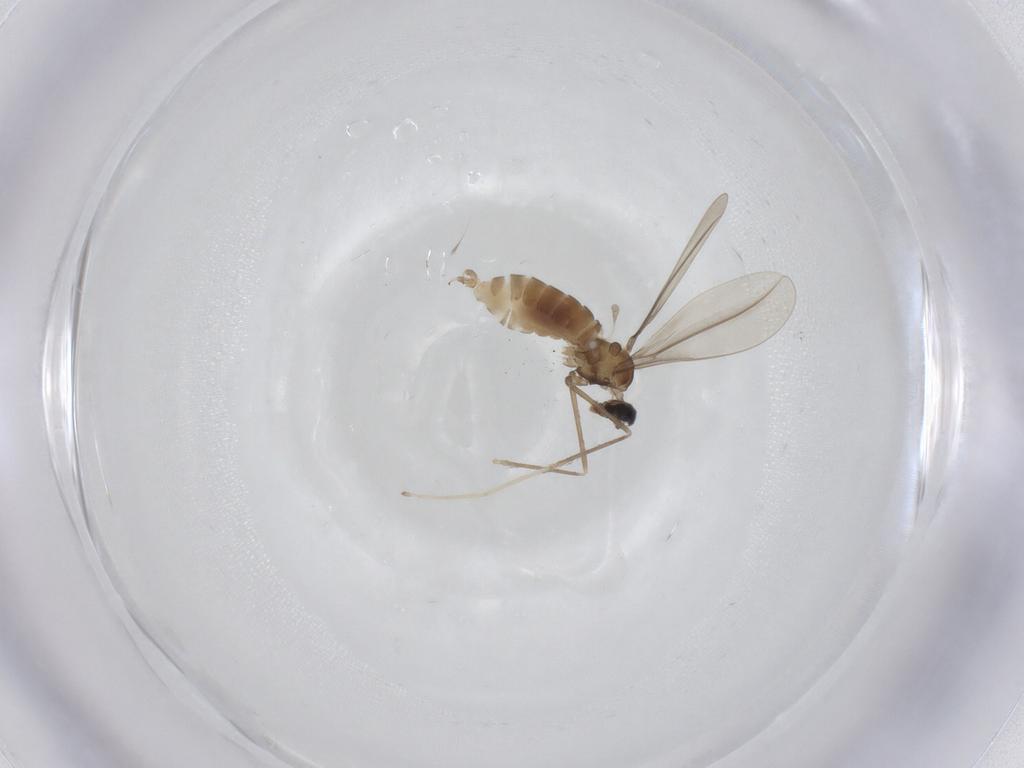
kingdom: Animalia
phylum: Arthropoda
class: Insecta
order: Diptera
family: Cecidomyiidae
